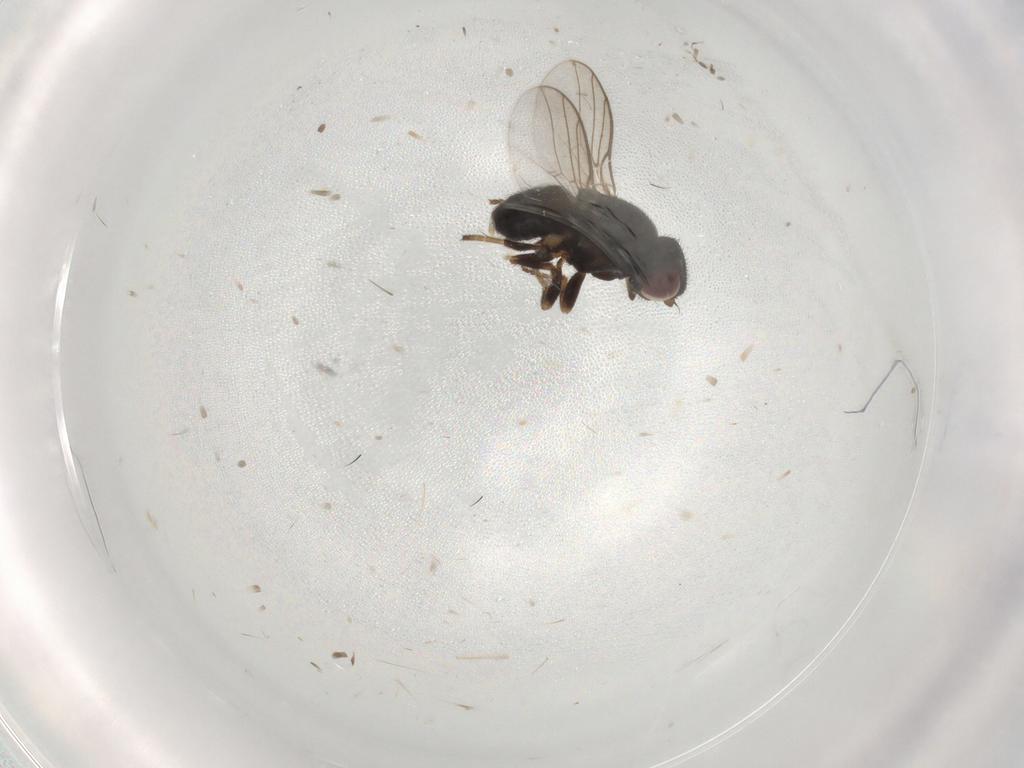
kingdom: Animalia
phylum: Arthropoda
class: Insecta
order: Diptera
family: Chloropidae
